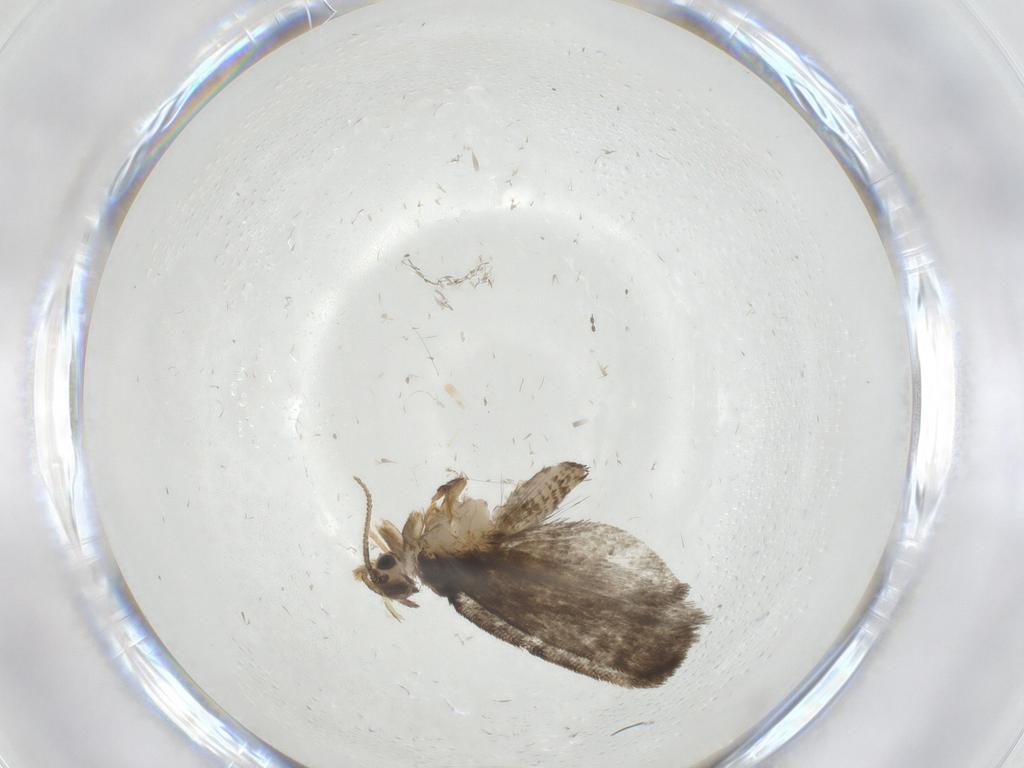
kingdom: Animalia
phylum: Arthropoda
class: Insecta
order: Lepidoptera
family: Psychidae
